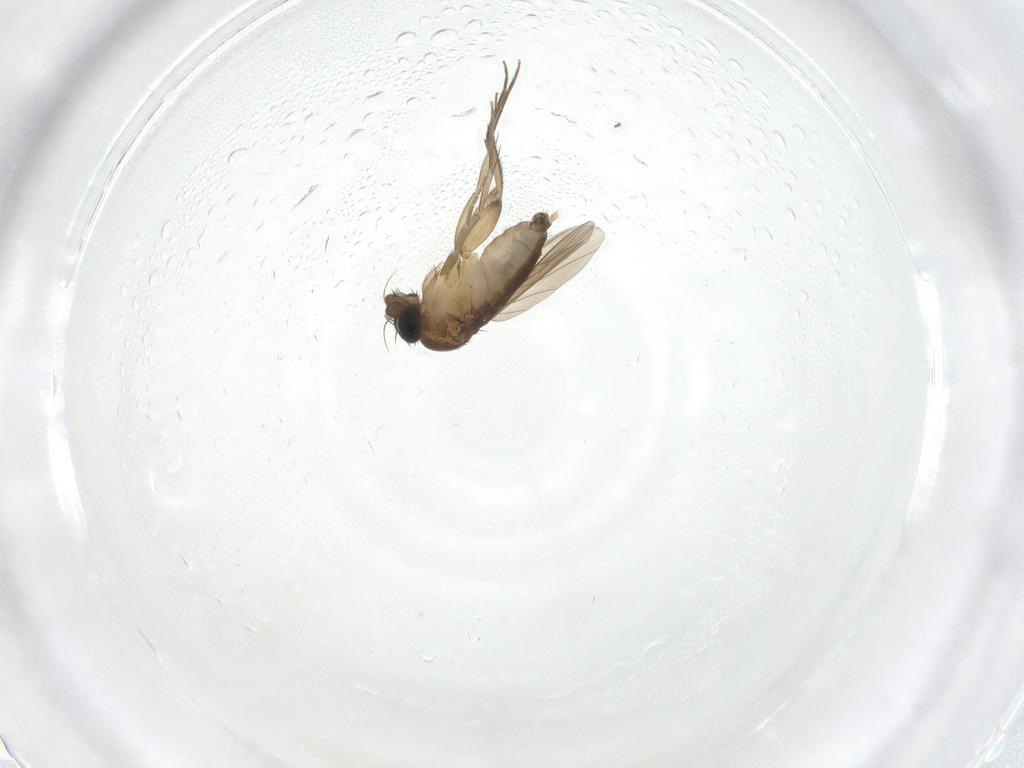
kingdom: Animalia
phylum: Arthropoda
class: Insecta
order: Diptera
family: Phoridae
